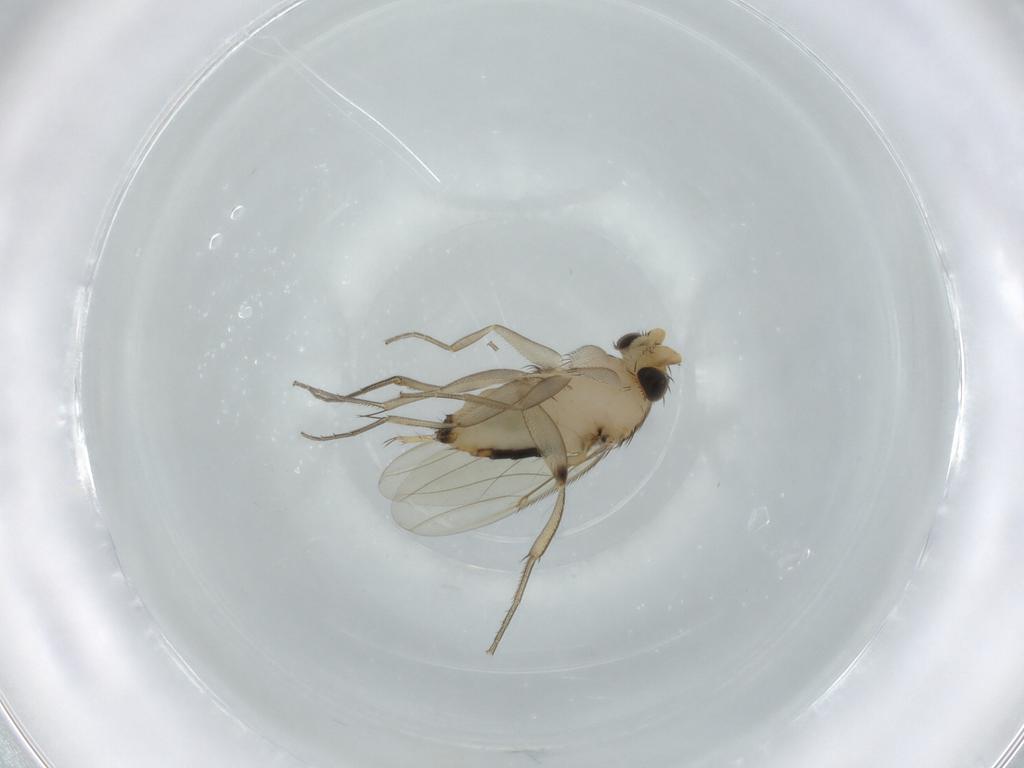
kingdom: Animalia
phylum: Arthropoda
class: Insecta
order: Diptera
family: Phoridae
